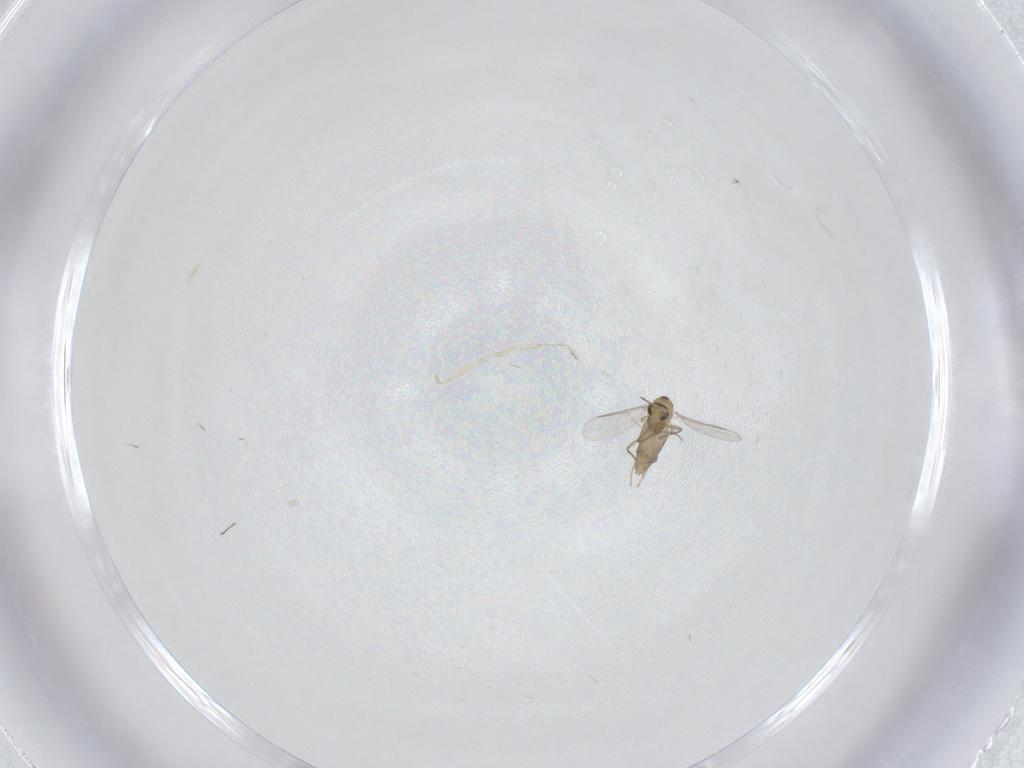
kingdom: Animalia
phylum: Arthropoda
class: Insecta
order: Diptera
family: Chironomidae
